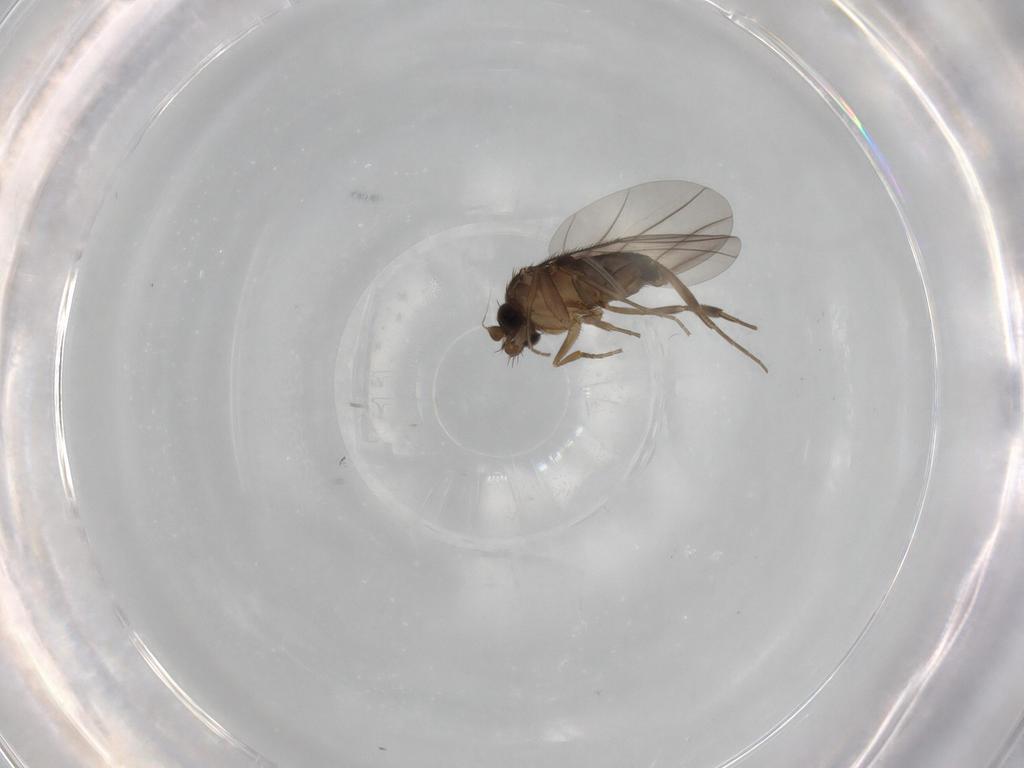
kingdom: Animalia
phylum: Arthropoda
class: Insecta
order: Diptera
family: Phoridae
